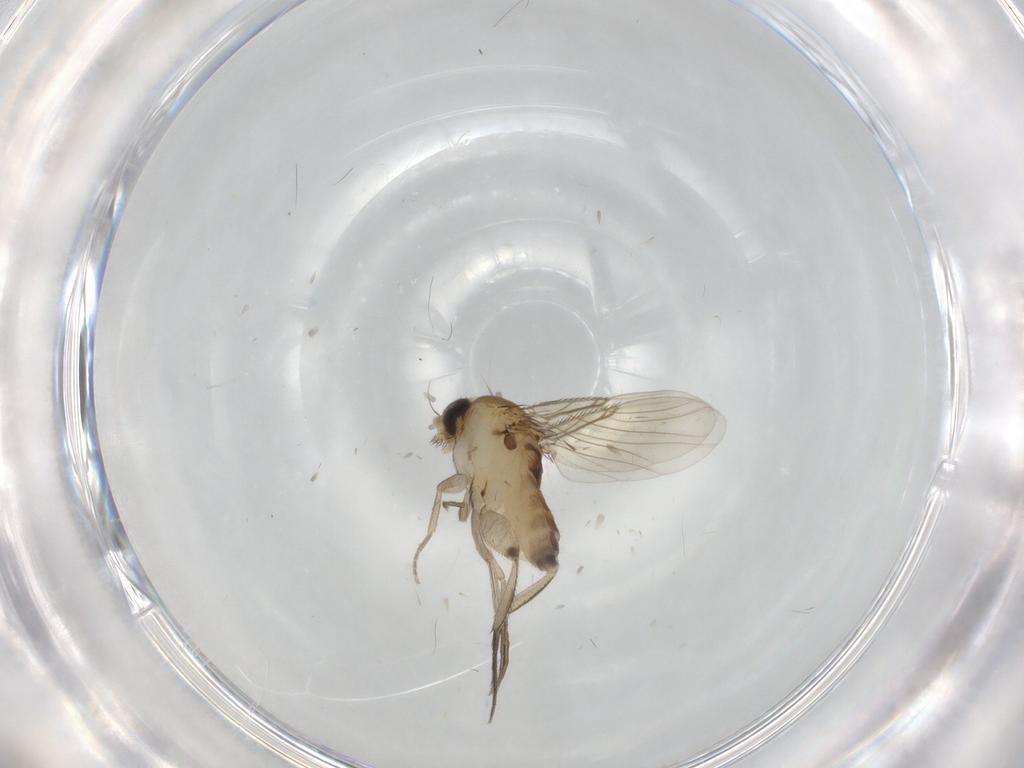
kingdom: Animalia
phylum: Arthropoda
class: Insecta
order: Diptera
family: Phoridae
